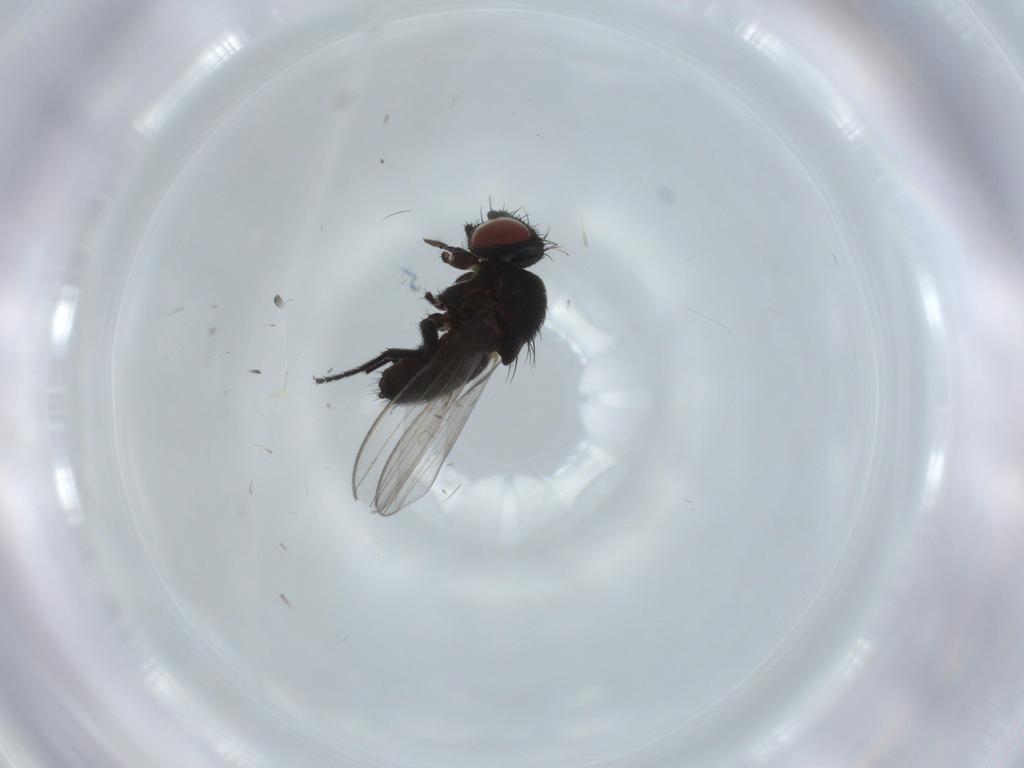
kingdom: Animalia
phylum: Arthropoda
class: Insecta
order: Diptera
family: Milichiidae
